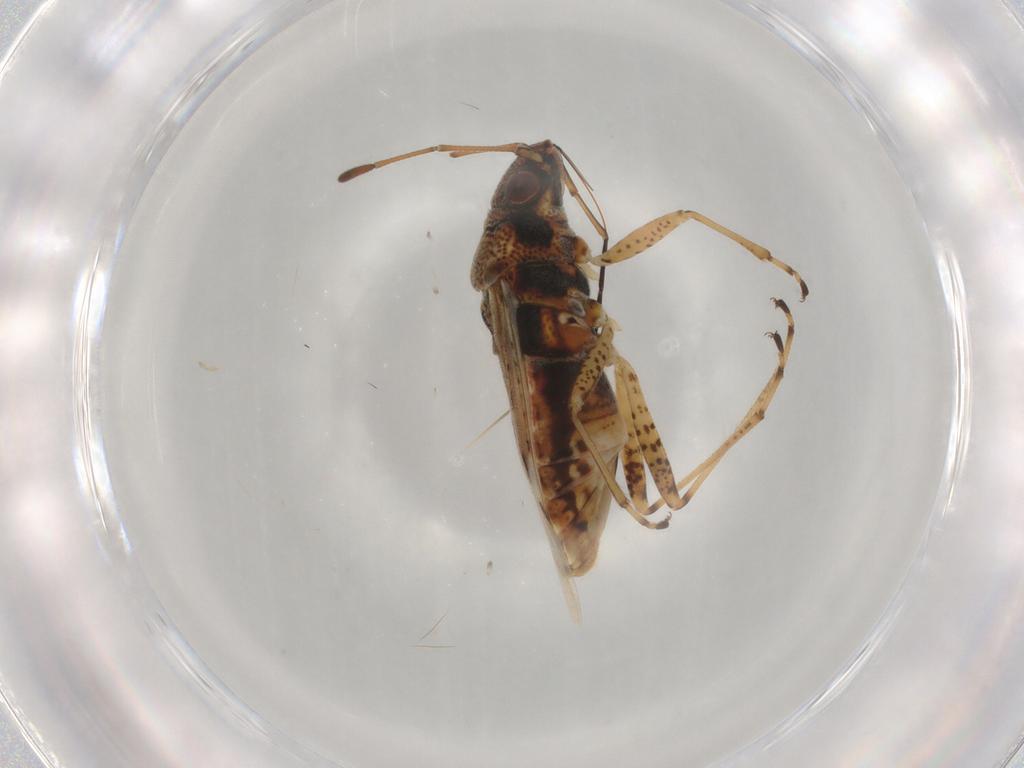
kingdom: Animalia
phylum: Arthropoda
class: Insecta
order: Hemiptera
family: Lygaeidae
